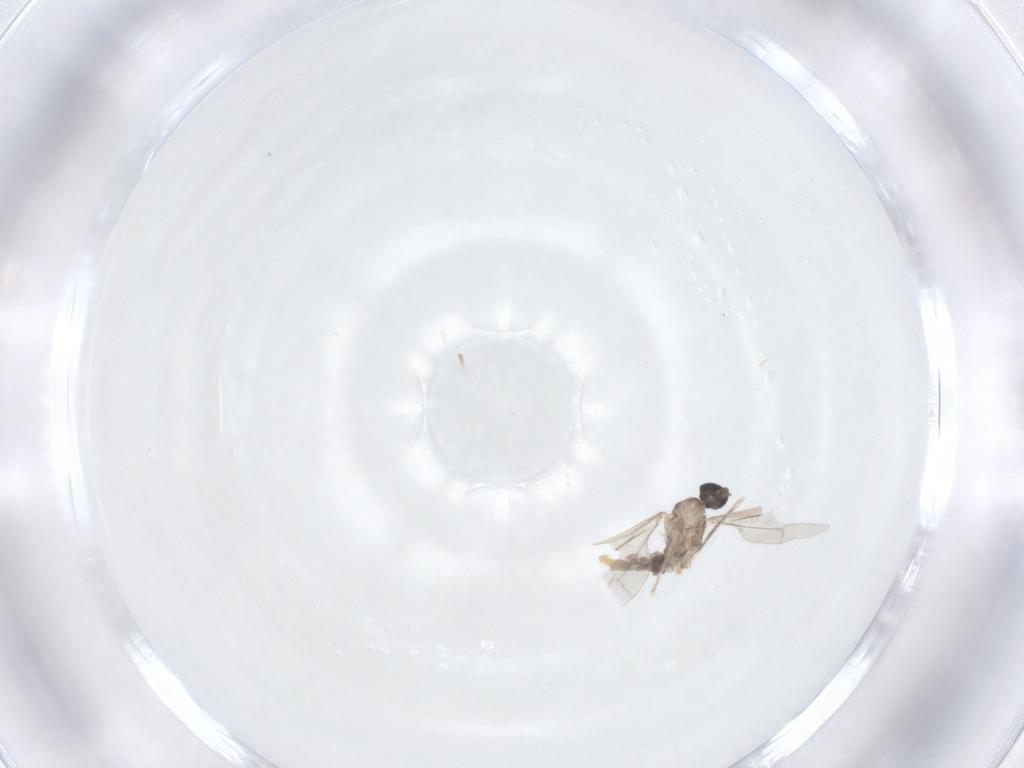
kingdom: Animalia
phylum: Arthropoda
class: Insecta
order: Diptera
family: Cecidomyiidae
